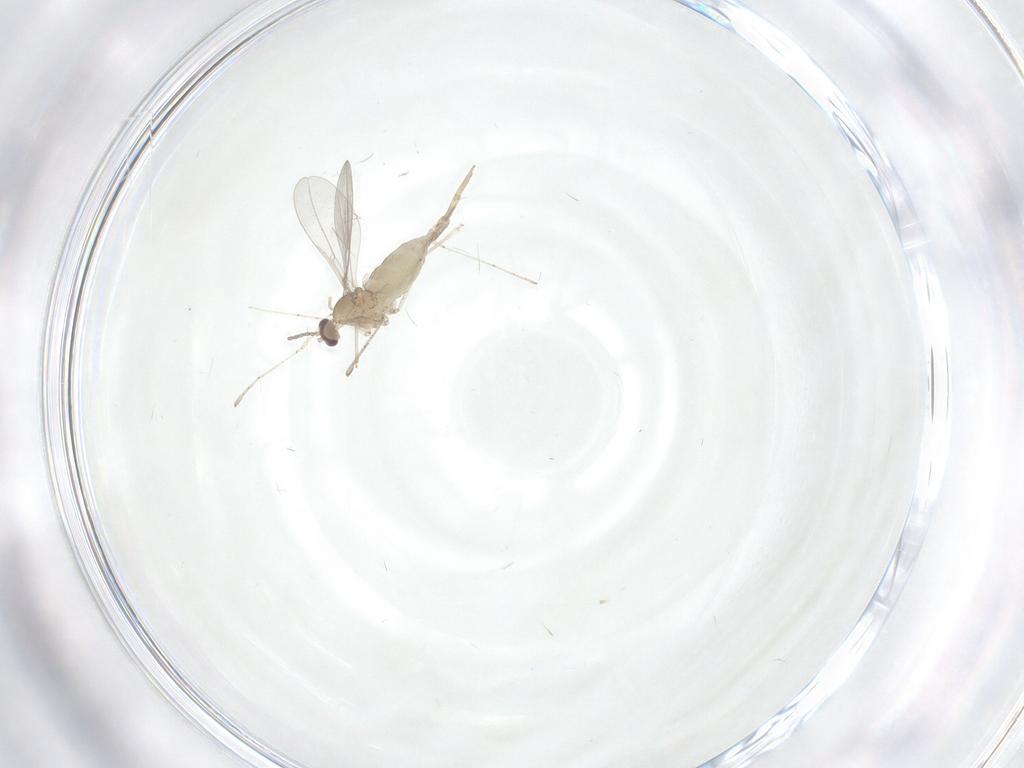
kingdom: Animalia
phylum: Arthropoda
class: Insecta
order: Diptera
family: Cecidomyiidae
